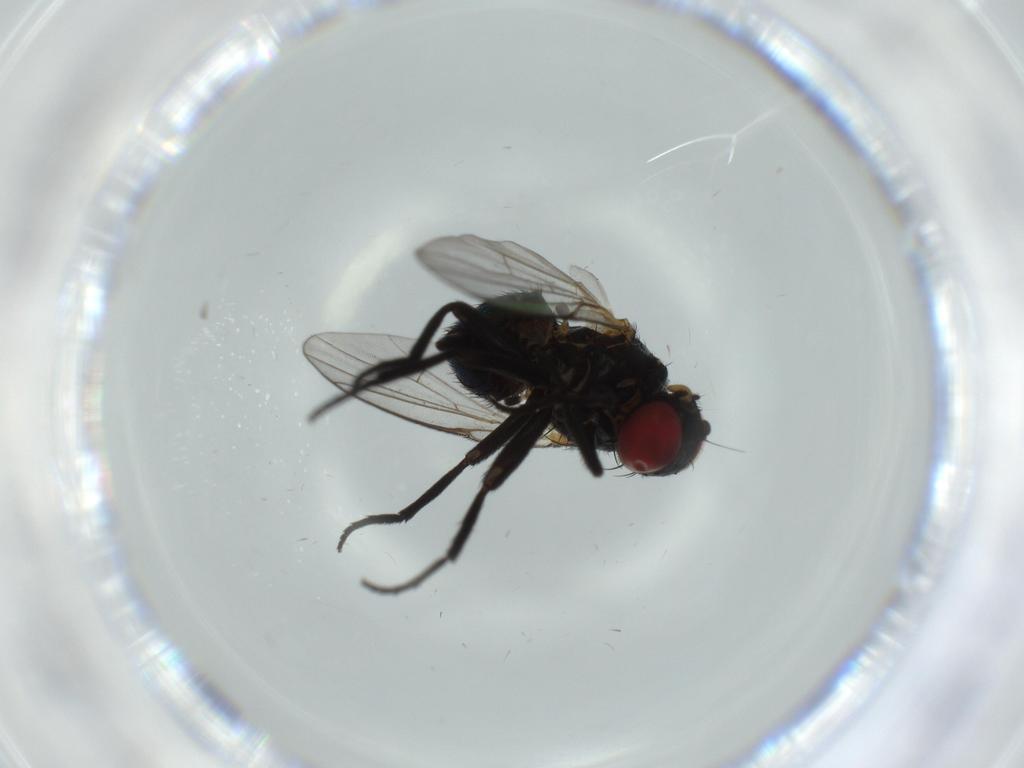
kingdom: Animalia
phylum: Arthropoda
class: Insecta
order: Diptera
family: Agromyzidae
